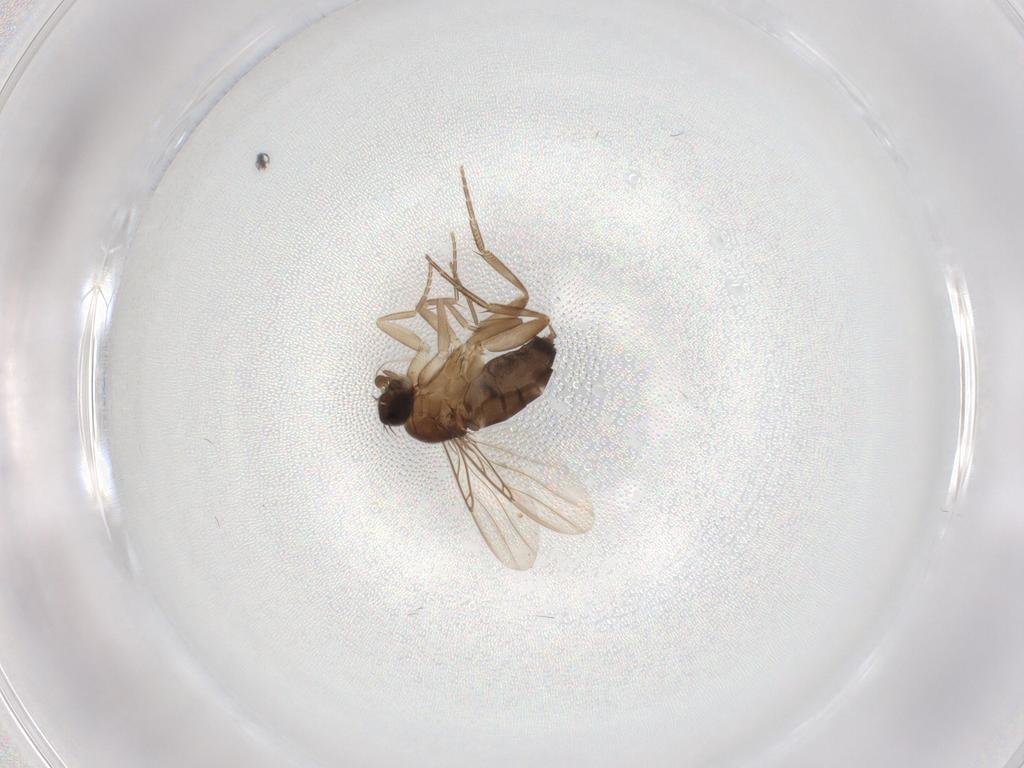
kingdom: Animalia
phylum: Arthropoda
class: Insecta
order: Diptera
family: Phoridae
